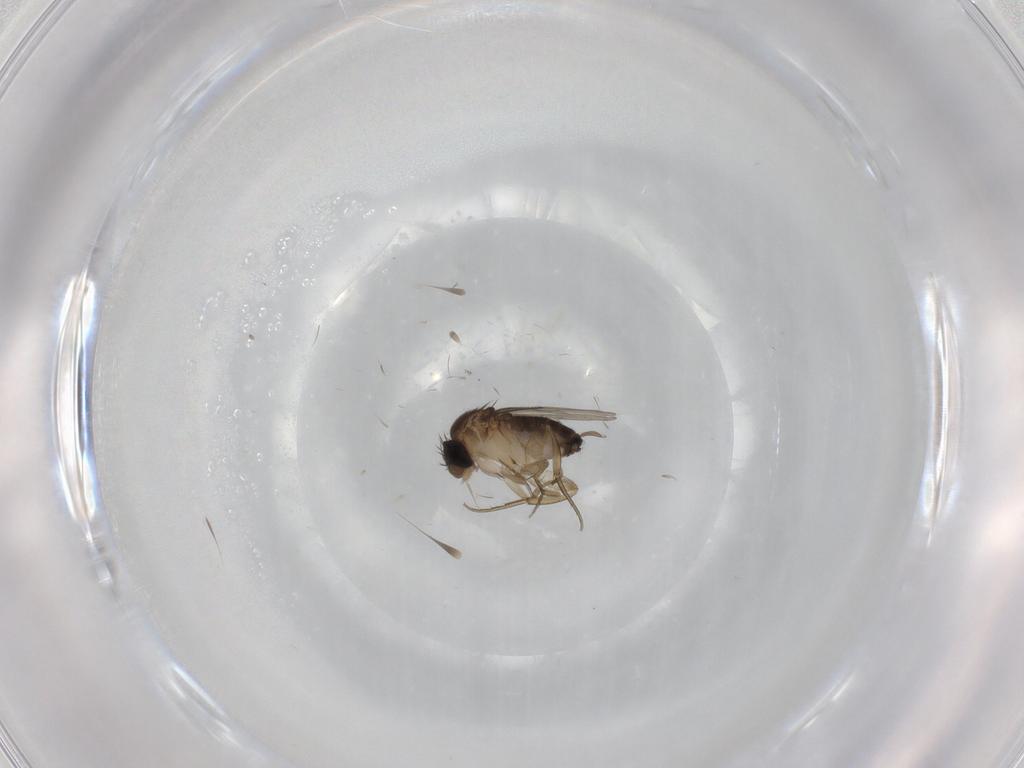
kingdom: Animalia
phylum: Arthropoda
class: Insecta
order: Diptera
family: Phoridae
